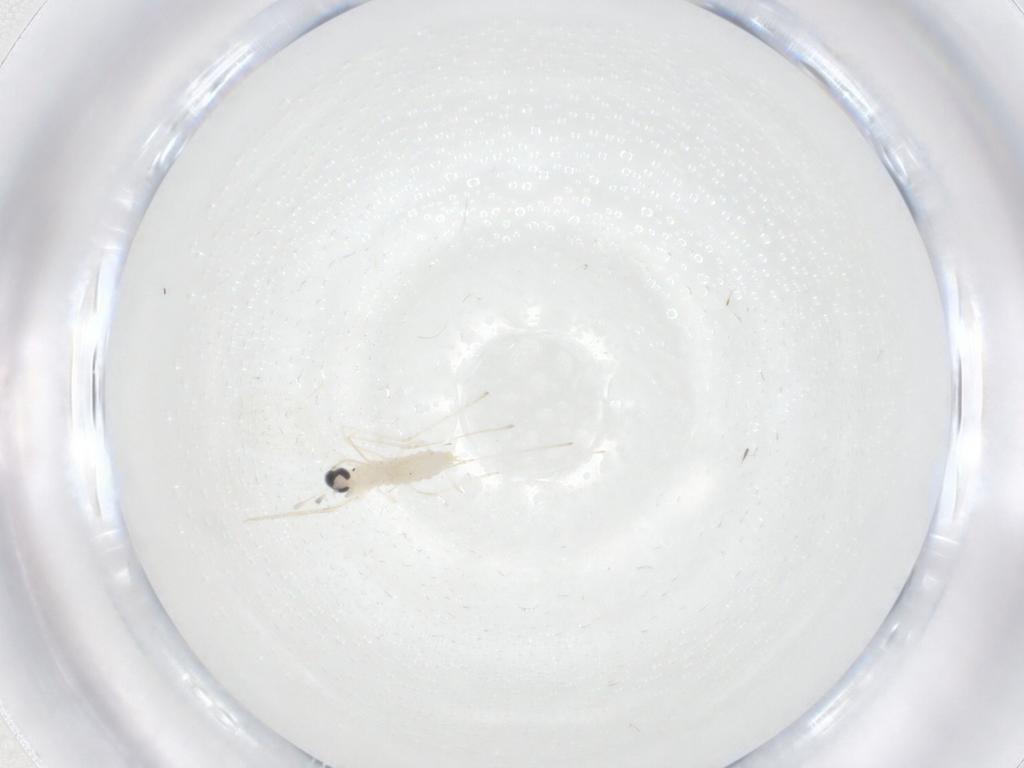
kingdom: Animalia
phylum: Arthropoda
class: Insecta
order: Diptera
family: Cecidomyiidae
